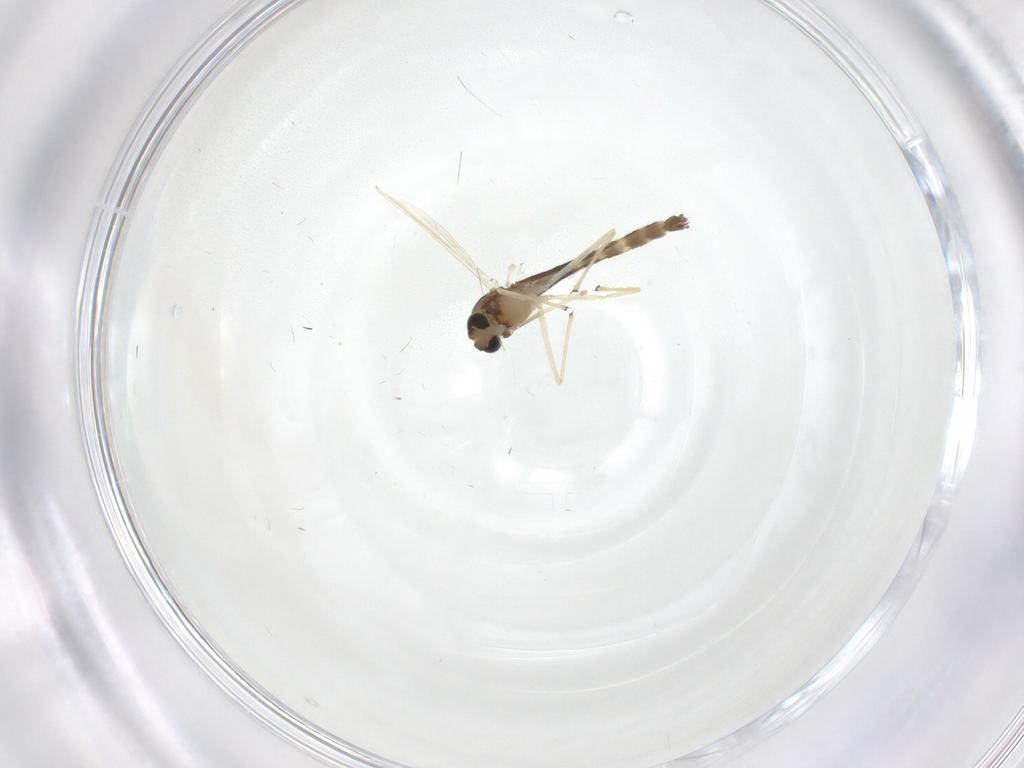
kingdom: Animalia
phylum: Arthropoda
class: Insecta
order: Diptera
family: Chironomidae
